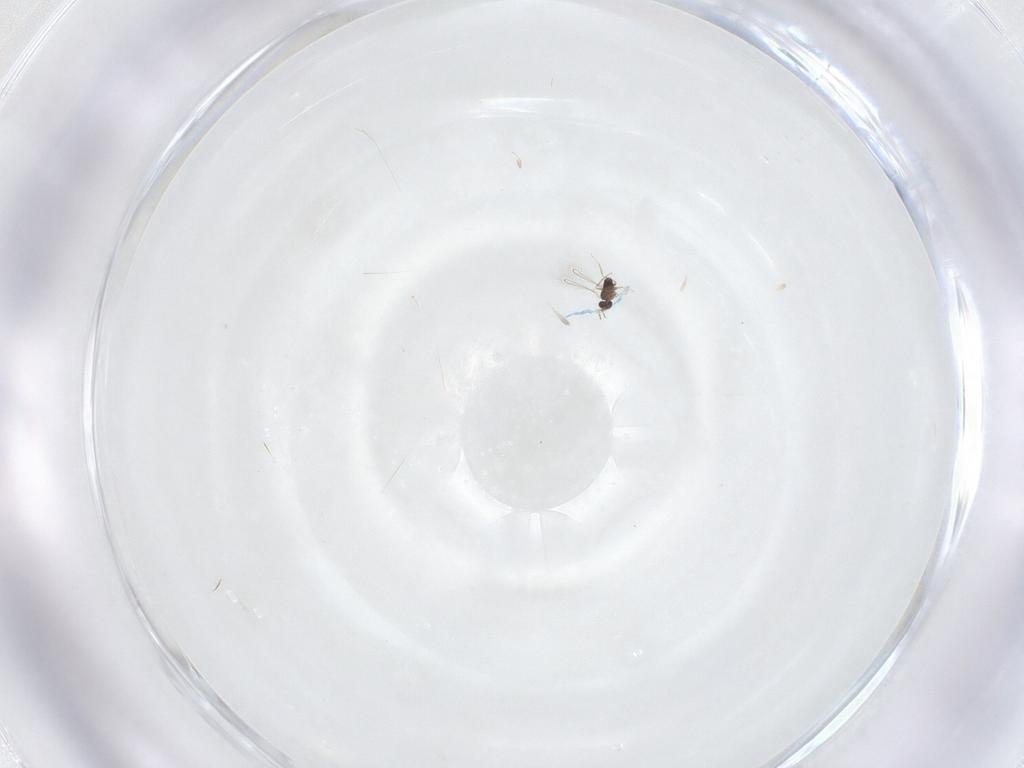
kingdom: Animalia
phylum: Arthropoda
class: Insecta
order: Hymenoptera
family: Mymaridae
